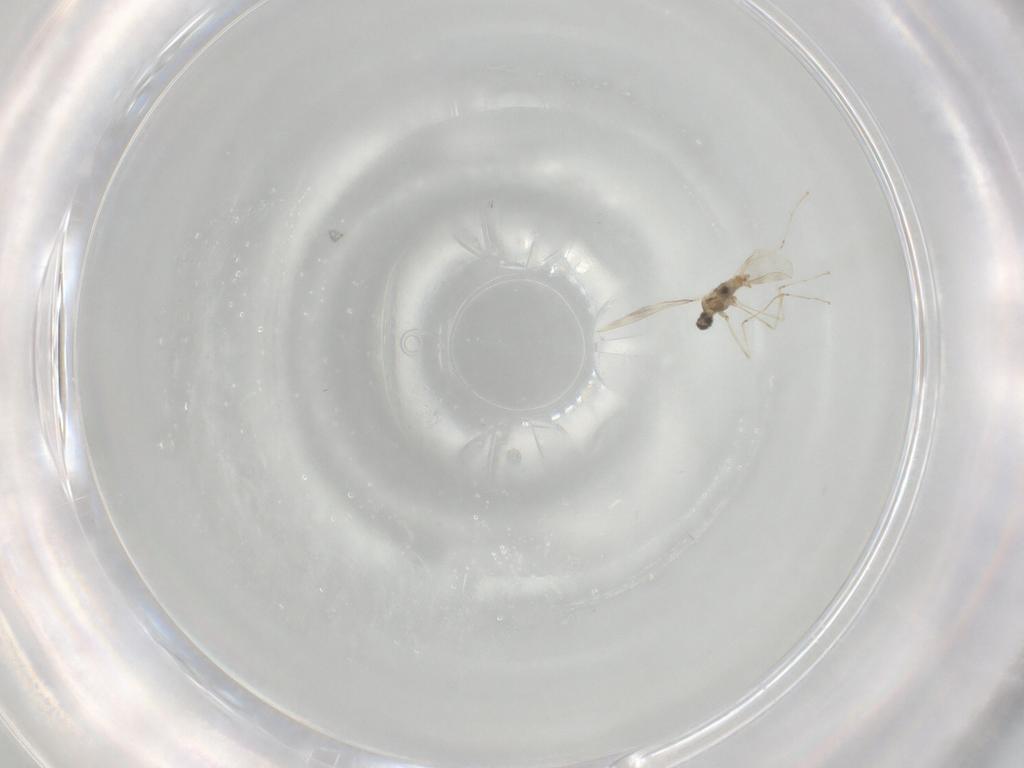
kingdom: Animalia
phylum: Arthropoda
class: Insecta
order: Diptera
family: Cecidomyiidae
